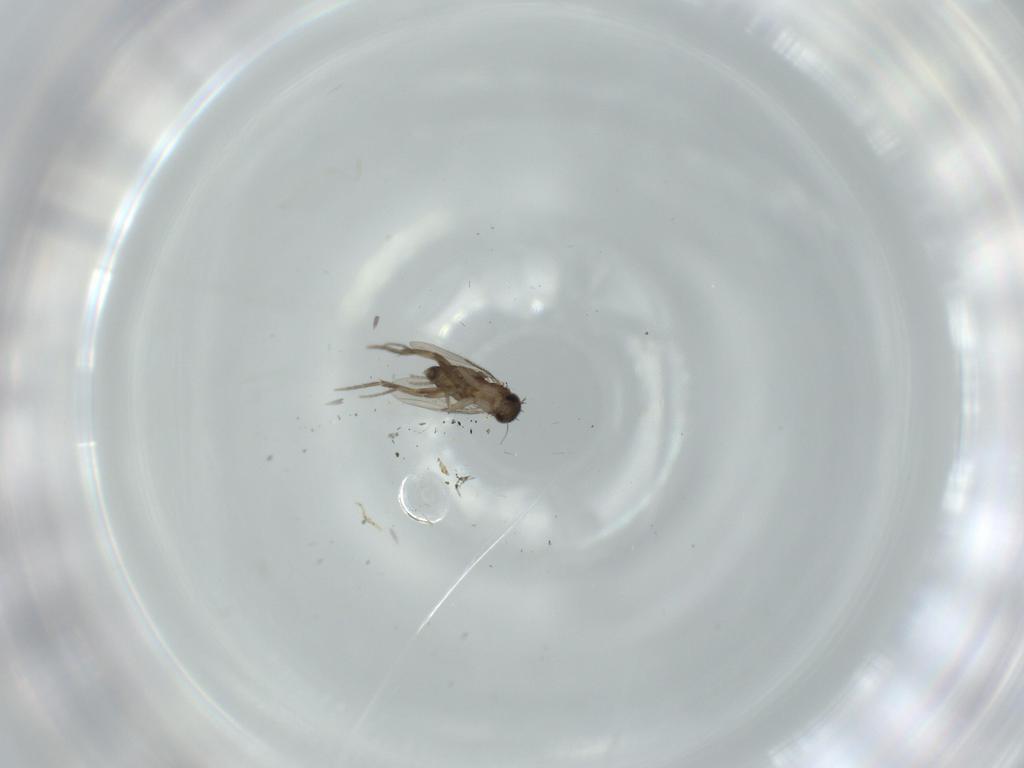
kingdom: Animalia
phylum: Arthropoda
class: Insecta
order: Diptera
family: Phoridae
